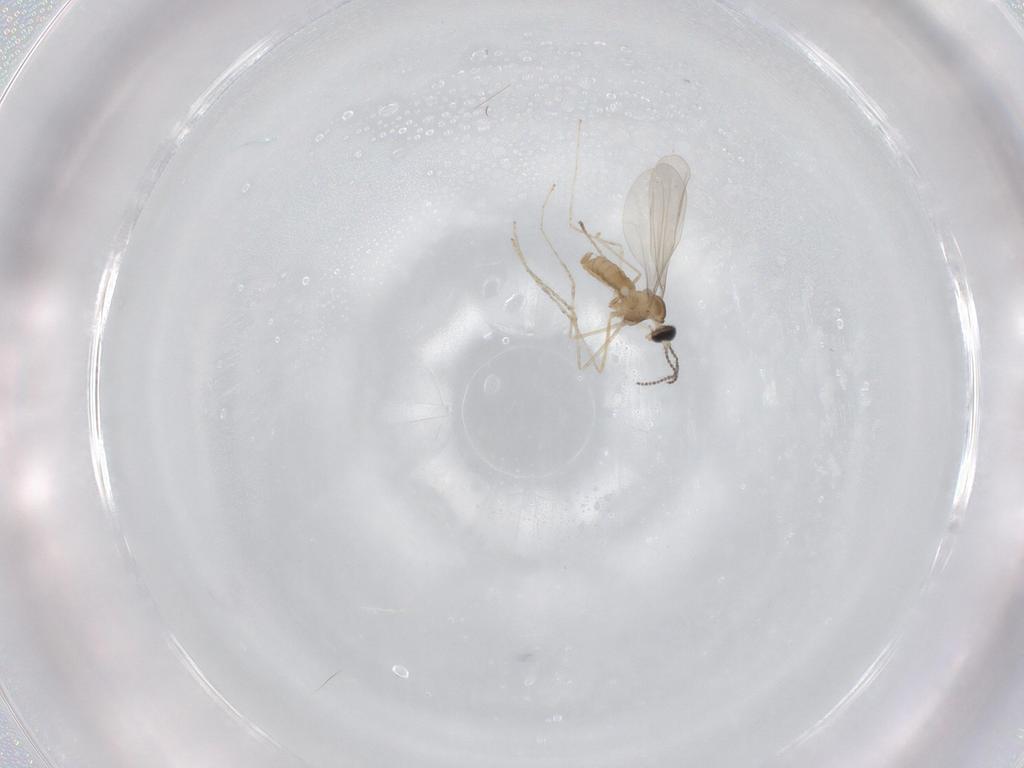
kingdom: Animalia
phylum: Arthropoda
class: Insecta
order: Diptera
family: Cecidomyiidae
